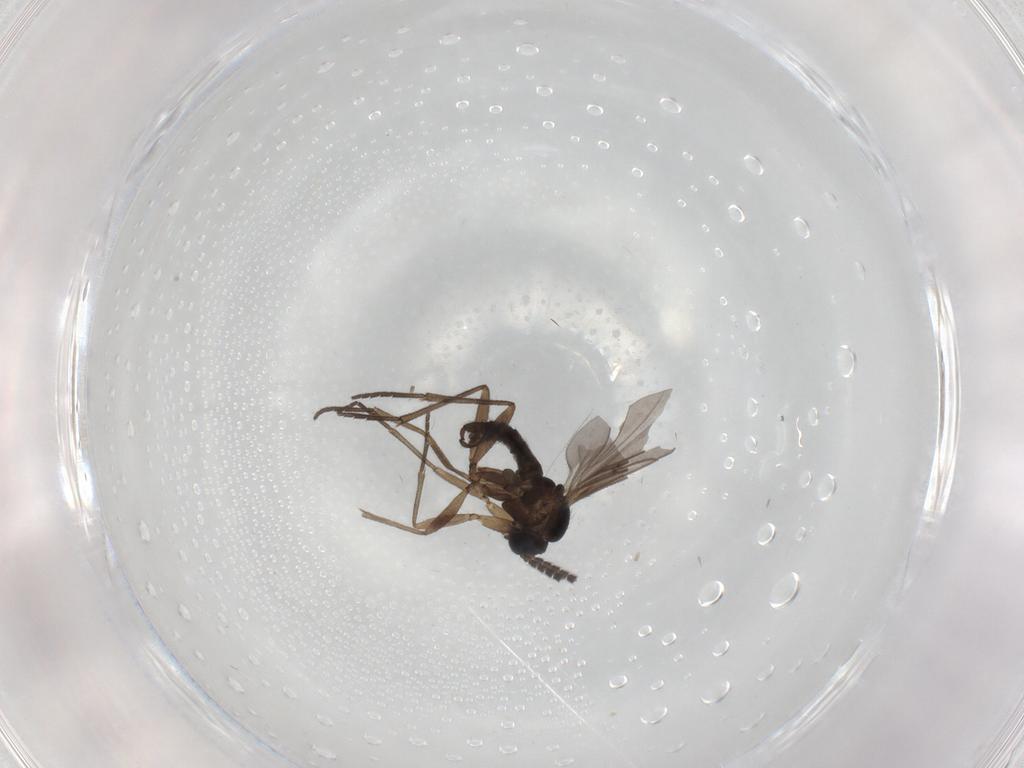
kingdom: Animalia
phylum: Arthropoda
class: Insecta
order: Diptera
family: Sciaridae
